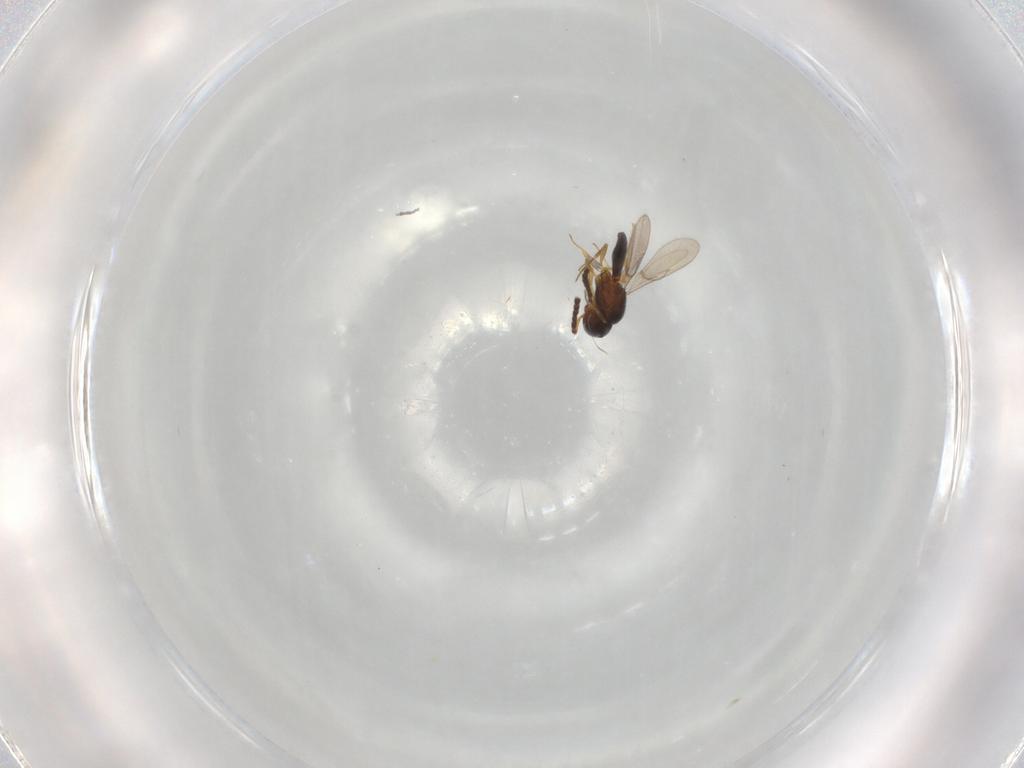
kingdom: Animalia
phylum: Arthropoda
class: Insecta
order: Hymenoptera
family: Scelionidae
